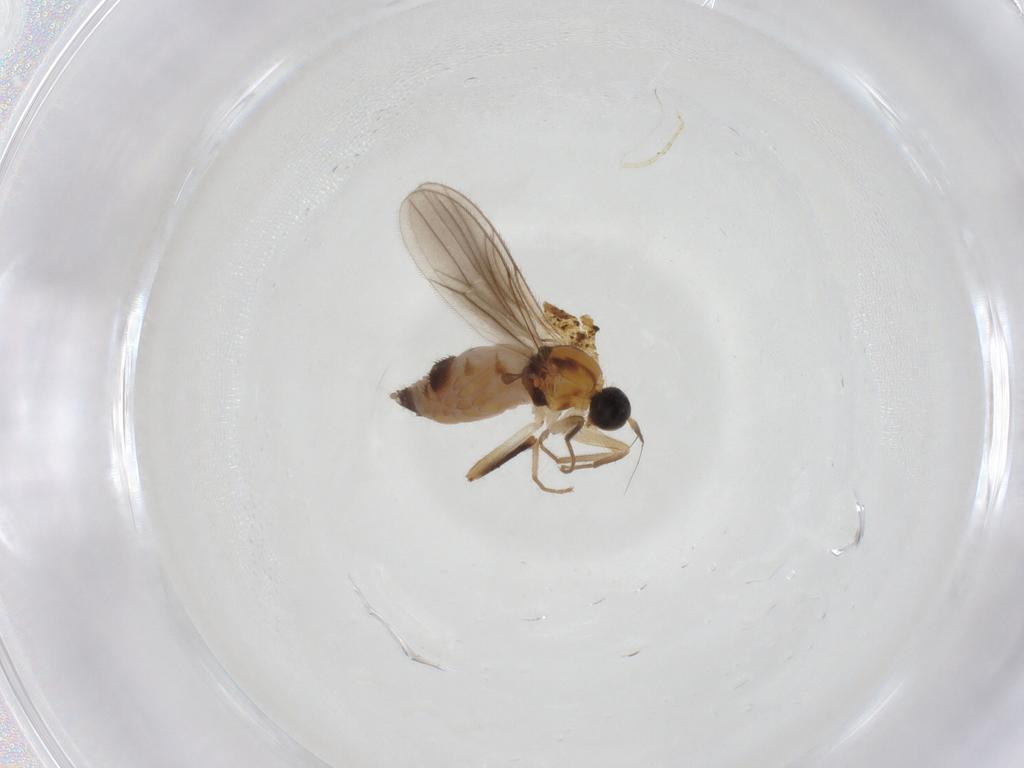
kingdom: Animalia
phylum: Arthropoda
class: Insecta
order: Diptera
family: Hybotidae
